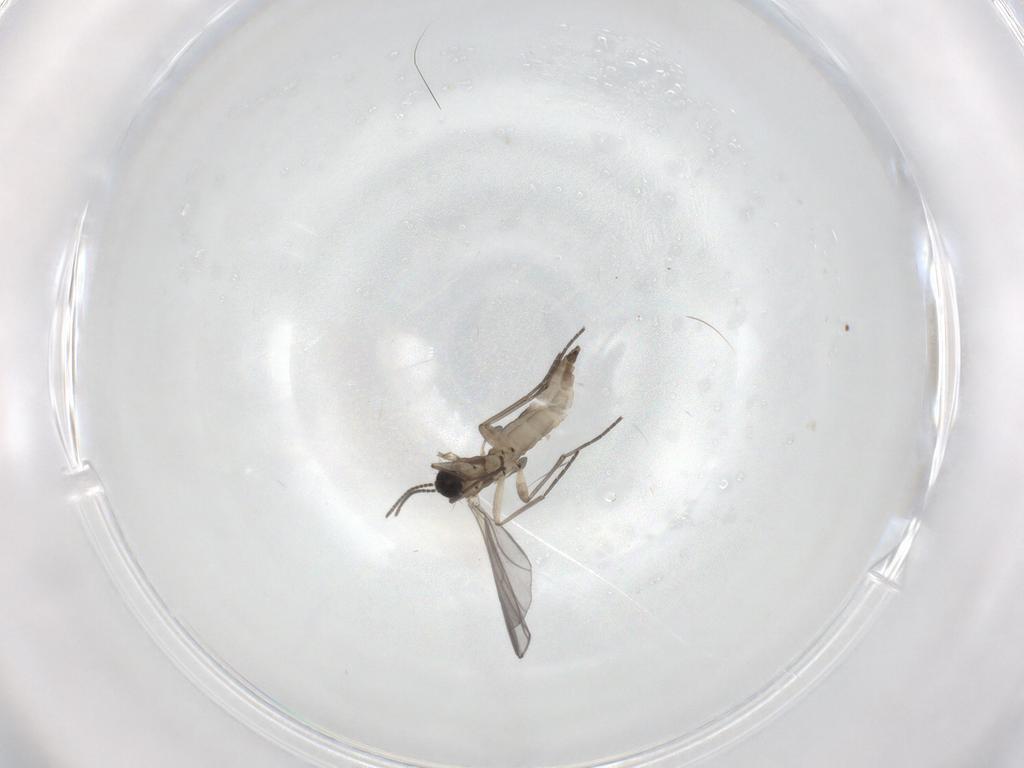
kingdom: Animalia
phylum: Arthropoda
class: Insecta
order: Diptera
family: Sciaridae
